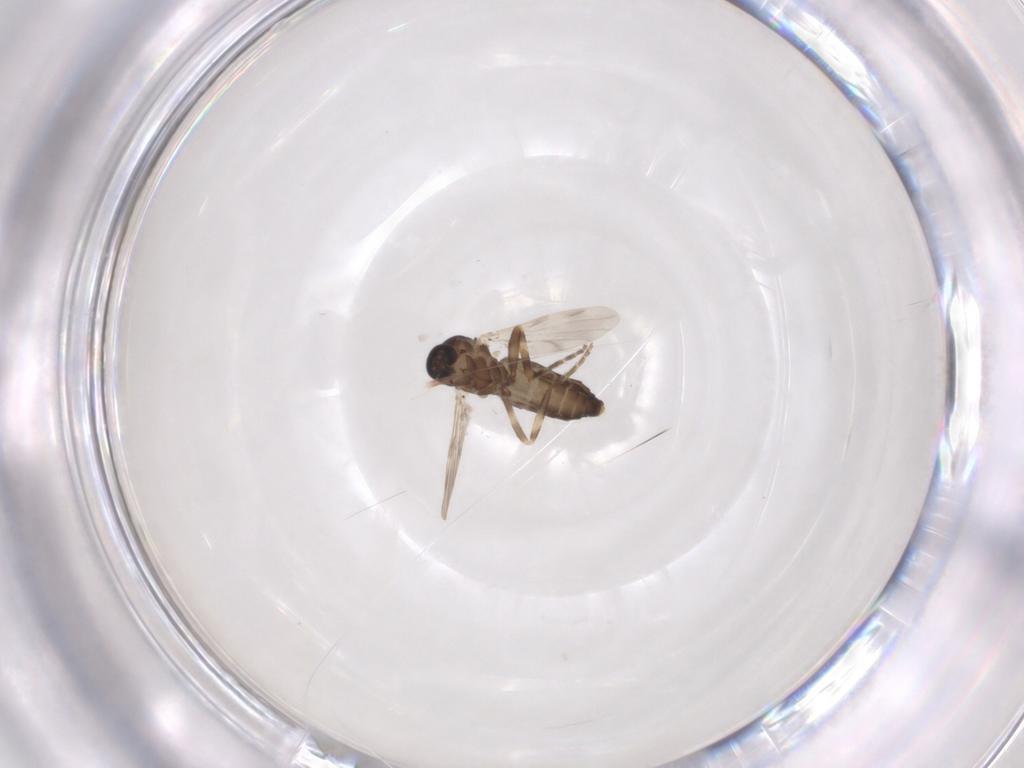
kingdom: Animalia
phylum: Arthropoda
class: Insecta
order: Diptera
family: Ceratopogonidae
